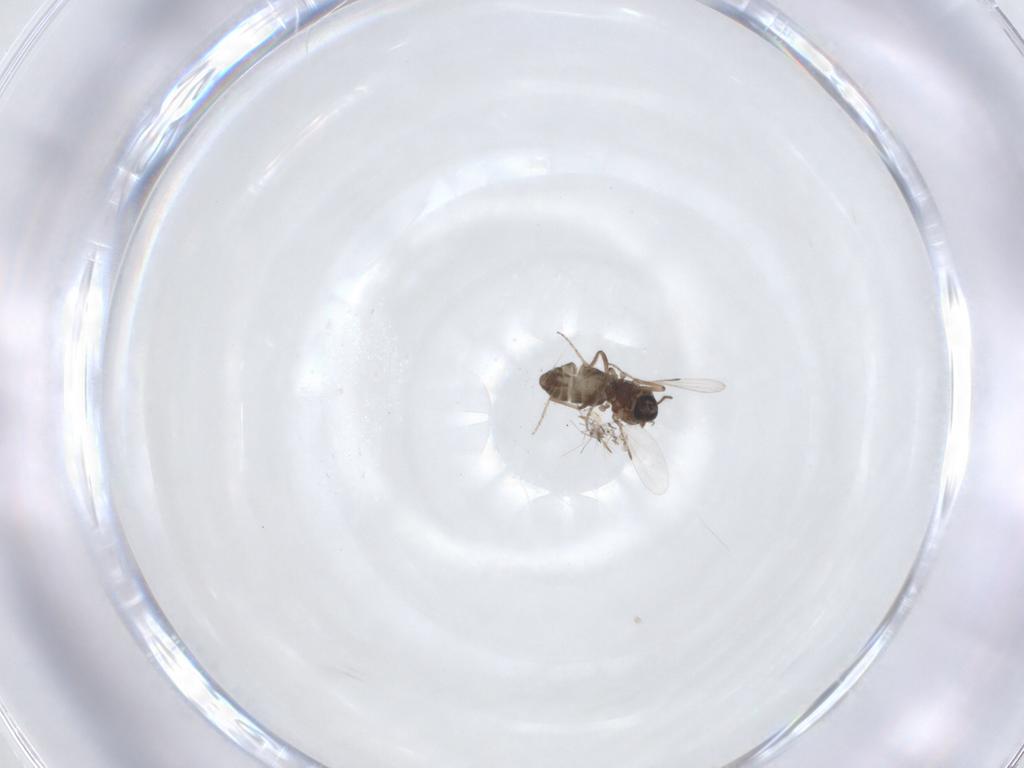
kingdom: Animalia
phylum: Arthropoda
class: Insecta
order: Diptera
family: Ceratopogonidae
